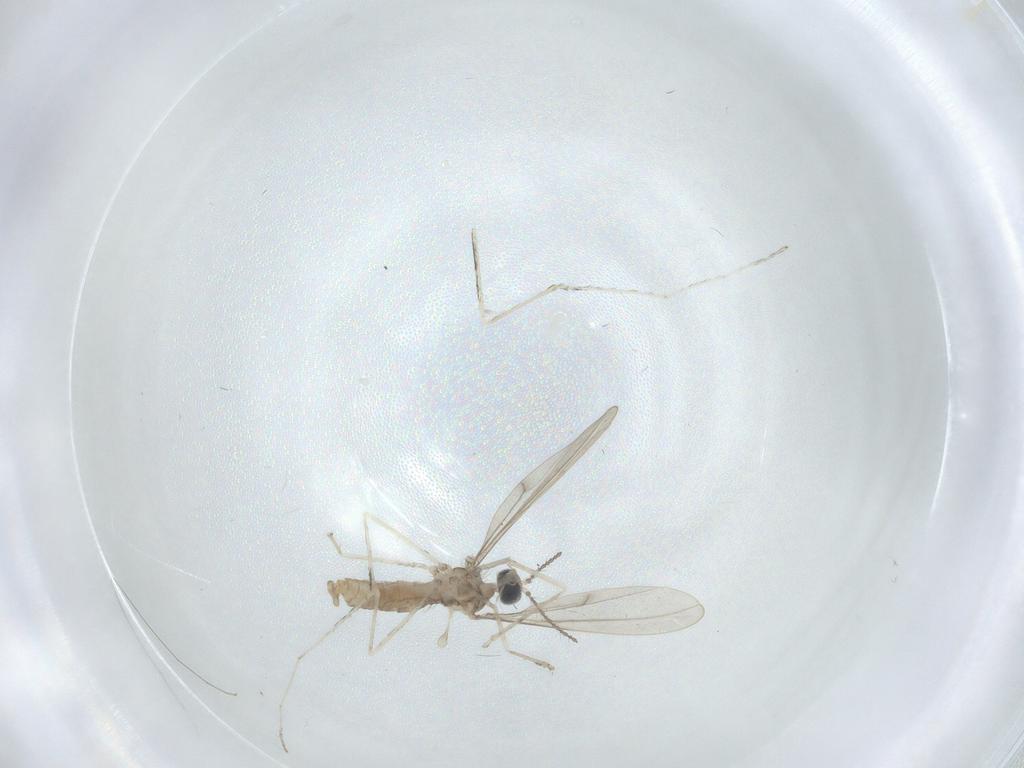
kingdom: Animalia
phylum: Arthropoda
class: Insecta
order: Diptera
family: Cecidomyiidae
